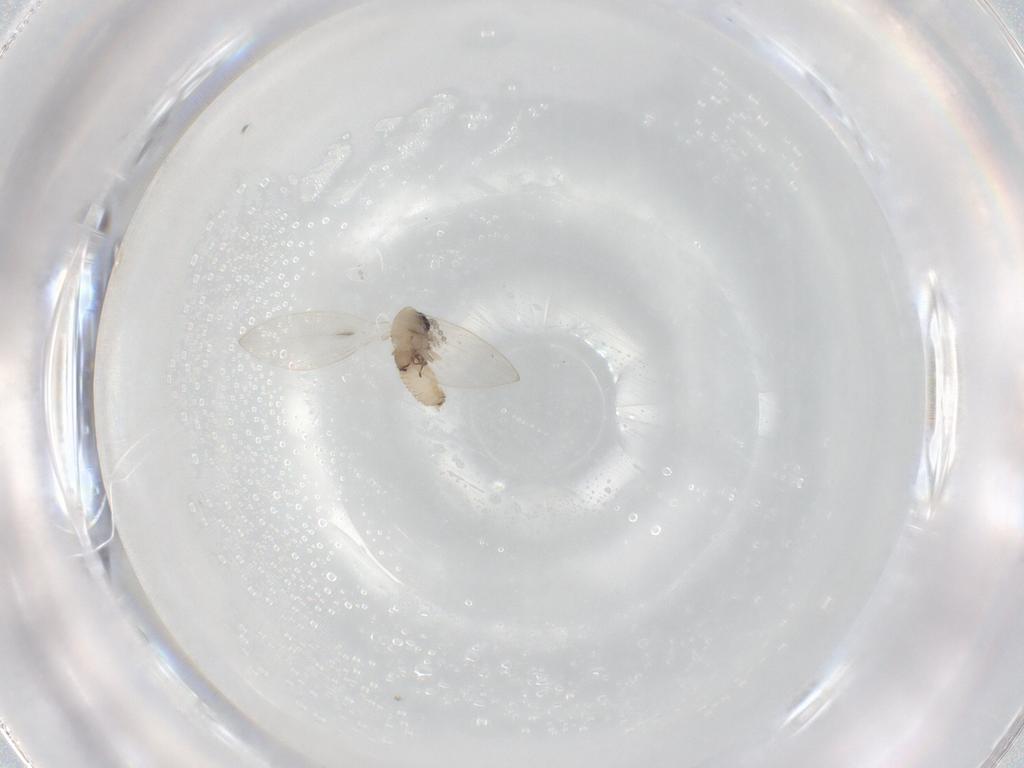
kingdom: Animalia
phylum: Arthropoda
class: Insecta
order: Diptera
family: Psychodidae
